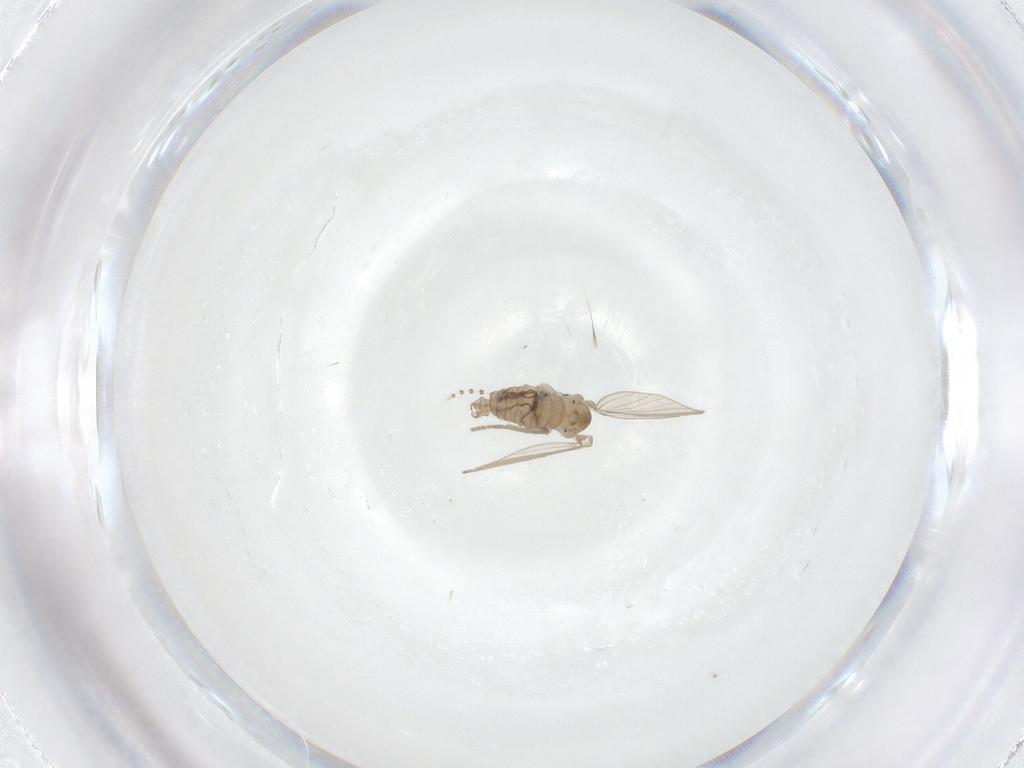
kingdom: Animalia
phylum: Arthropoda
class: Insecta
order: Diptera
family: Psychodidae
